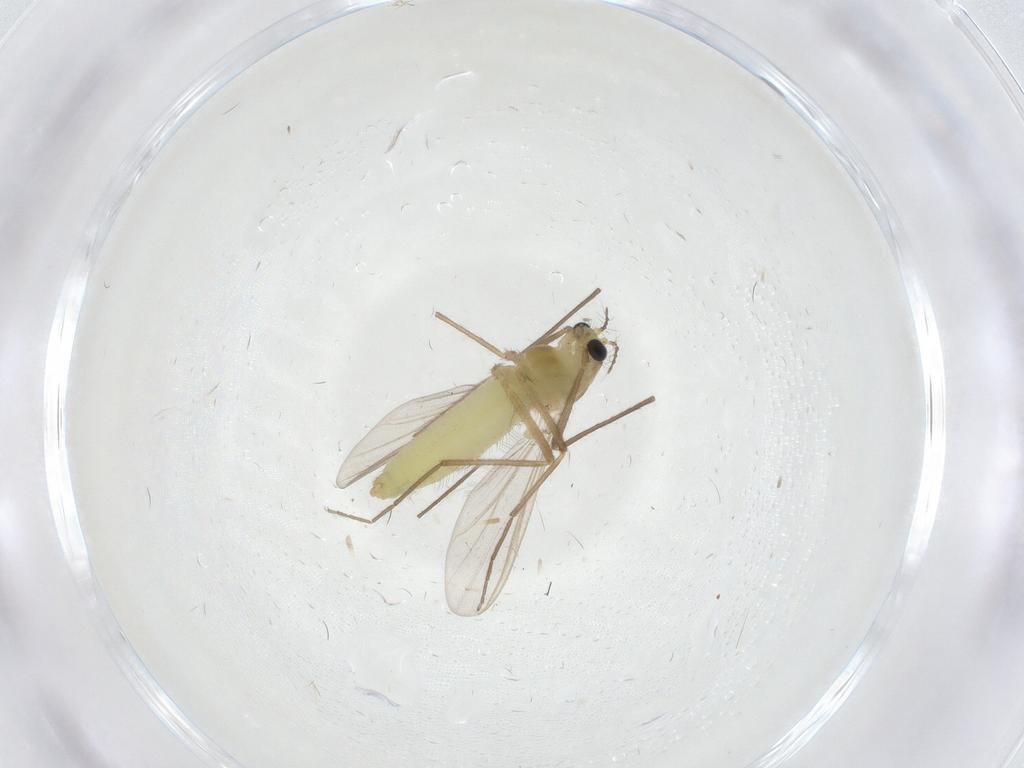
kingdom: Animalia
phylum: Arthropoda
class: Insecta
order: Diptera
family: Chironomidae
